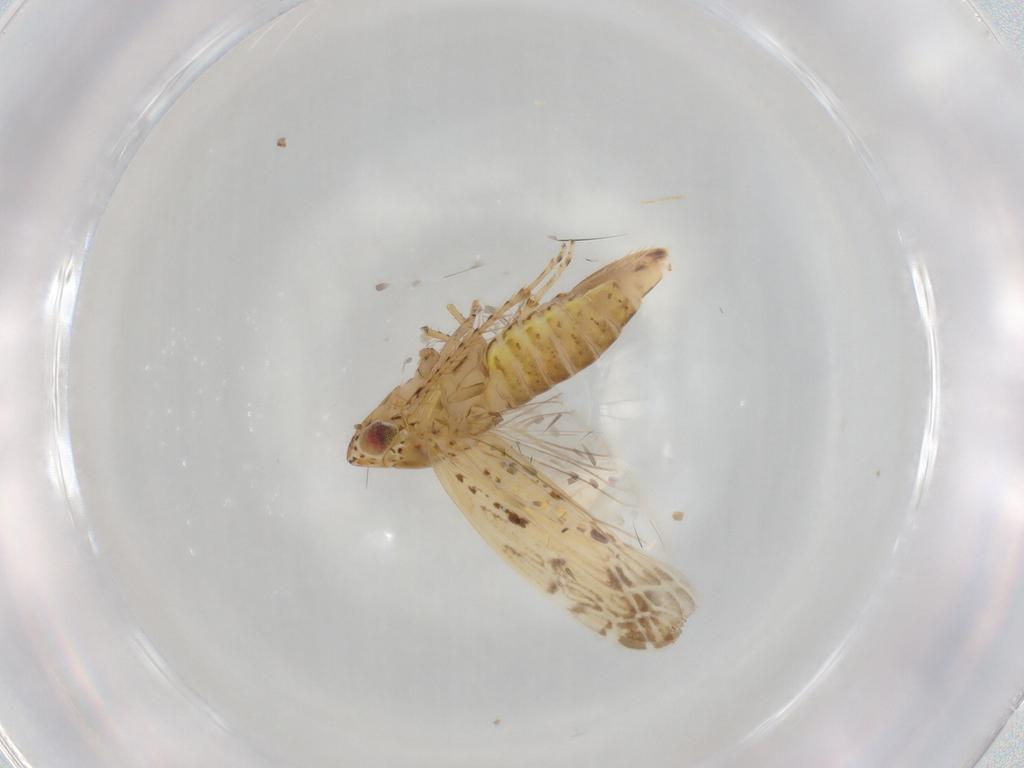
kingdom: Animalia
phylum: Arthropoda
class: Insecta
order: Hemiptera
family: Cicadellidae
